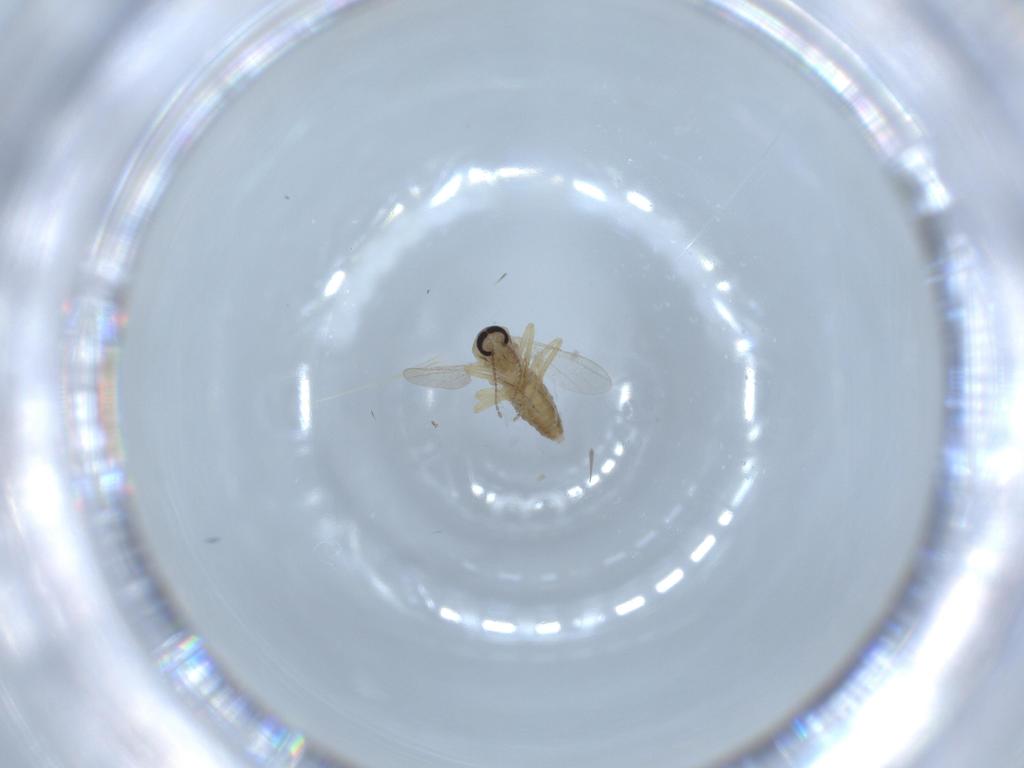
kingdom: Animalia
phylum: Arthropoda
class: Insecta
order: Diptera
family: Ceratopogonidae
